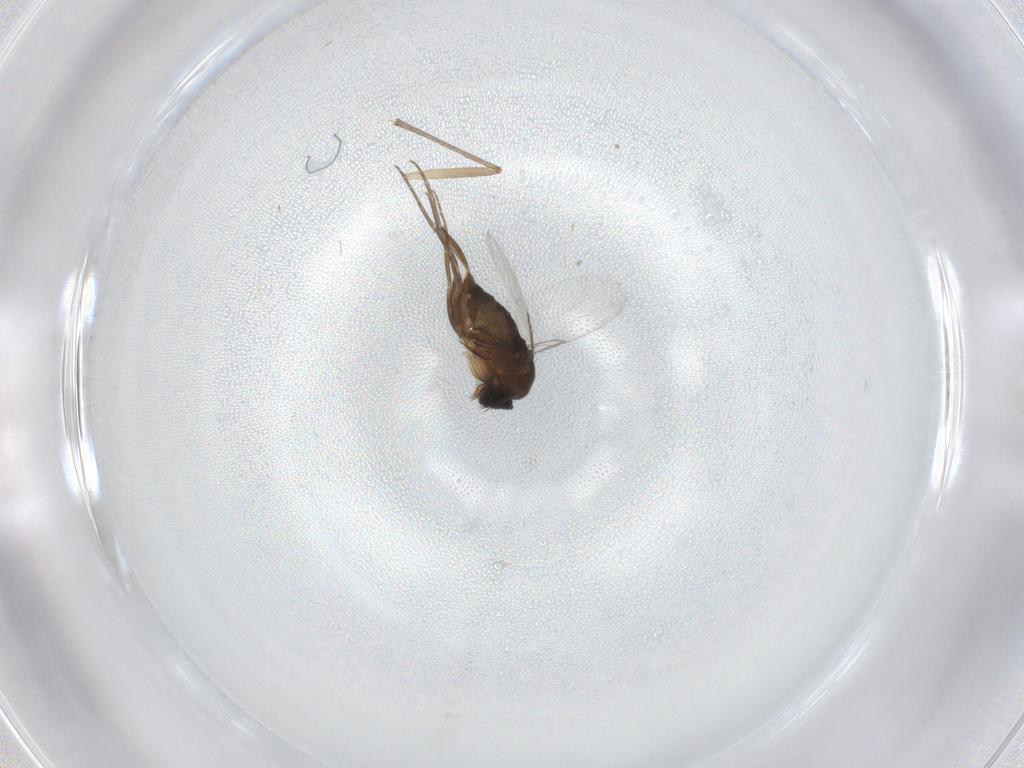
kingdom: Animalia
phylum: Arthropoda
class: Insecta
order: Diptera
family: Phoridae
